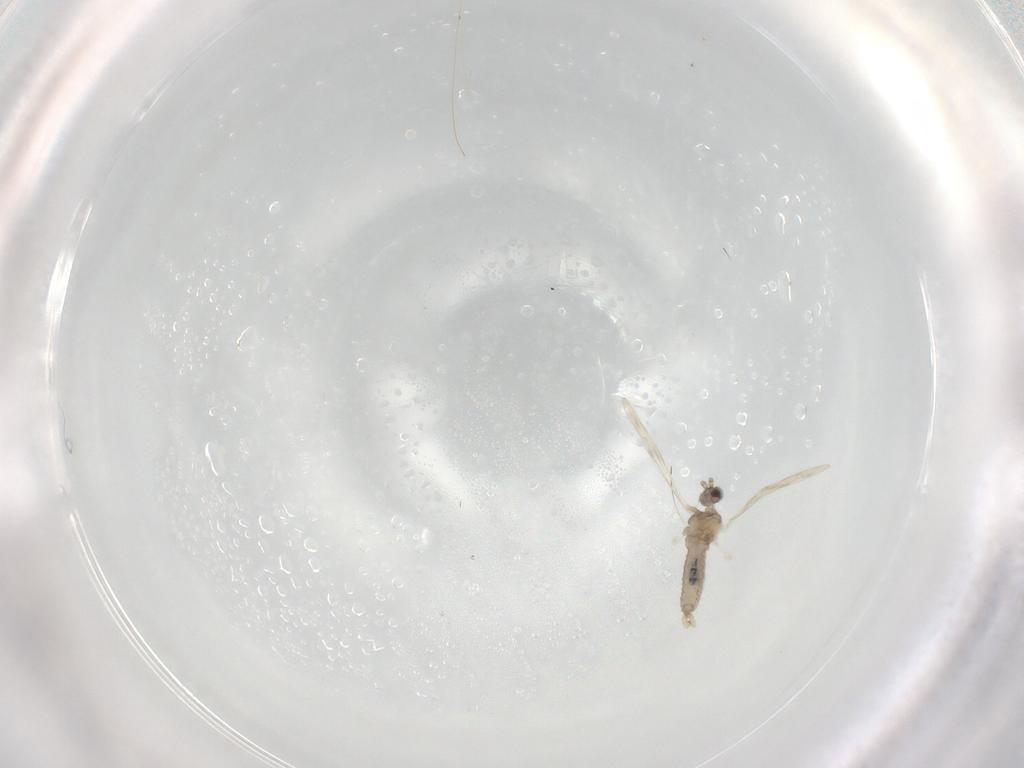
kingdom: Animalia
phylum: Arthropoda
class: Insecta
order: Diptera
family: Cecidomyiidae
